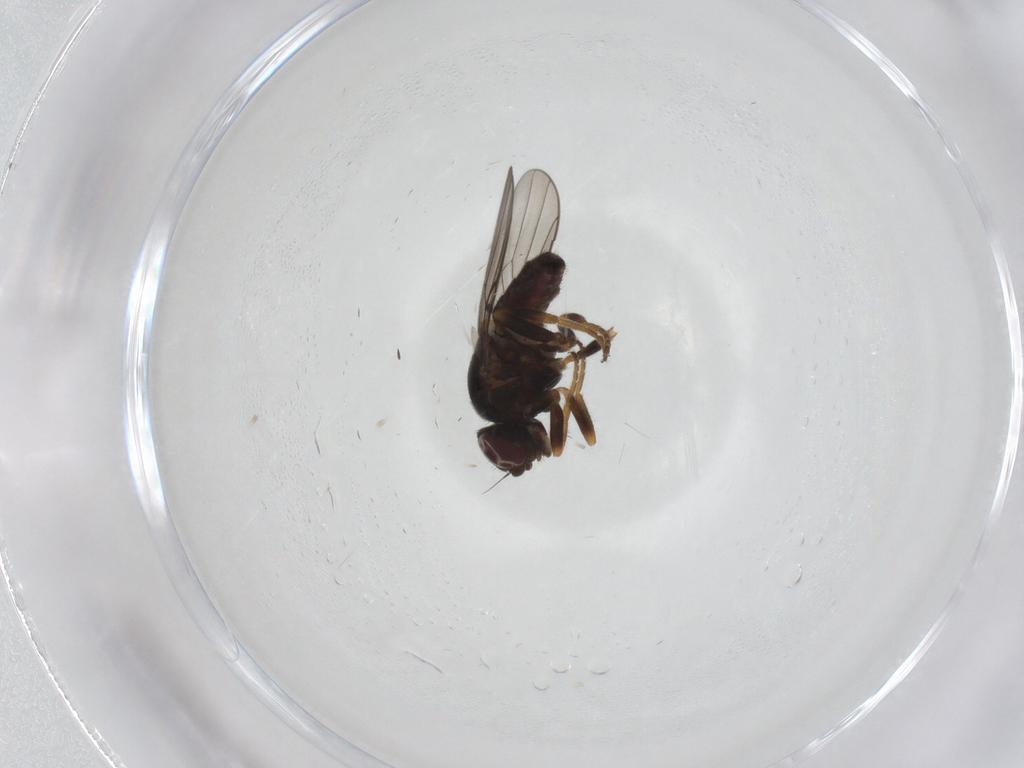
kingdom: Animalia
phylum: Arthropoda
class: Insecta
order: Diptera
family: Chloropidae
